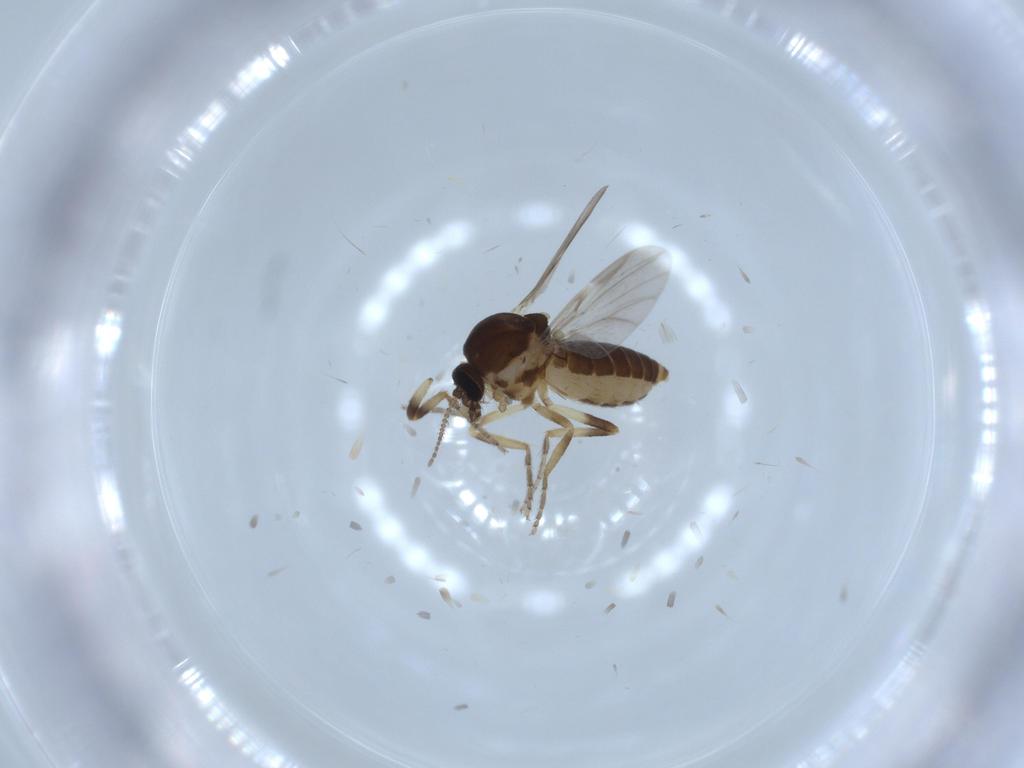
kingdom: Animalia
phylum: Arthropoda
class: Insecta
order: Diptera
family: Ceratopogonidae
